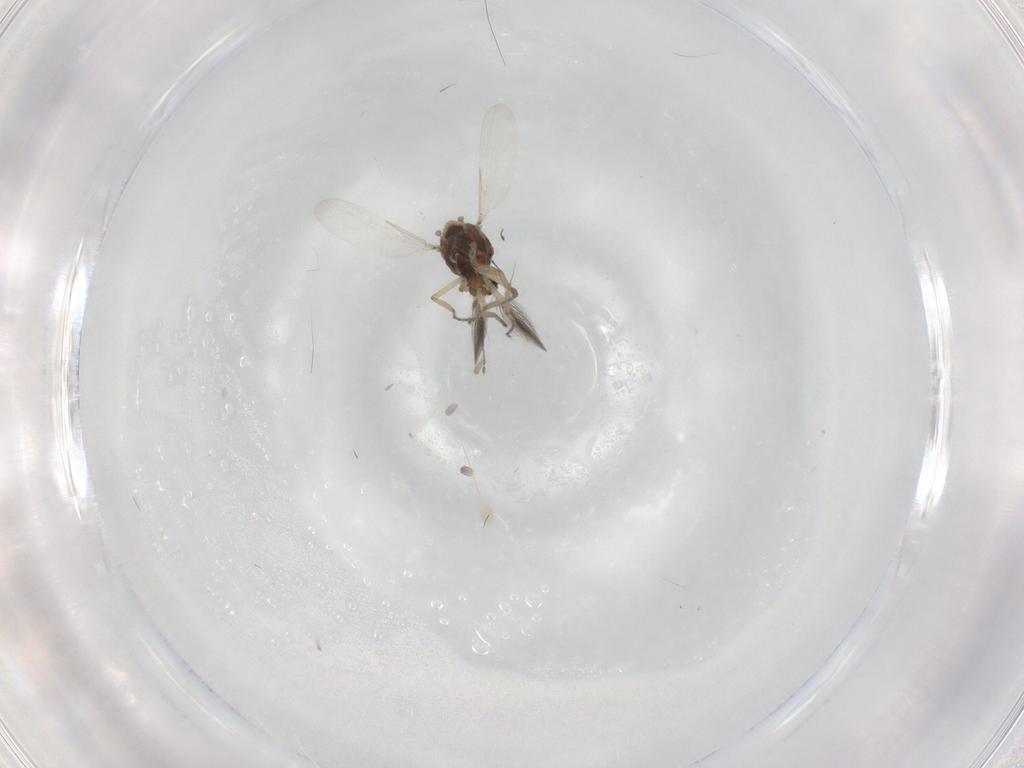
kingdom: Animalia
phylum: Arthropoda
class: Insecta
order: Diptera
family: Ceratopogonidae
